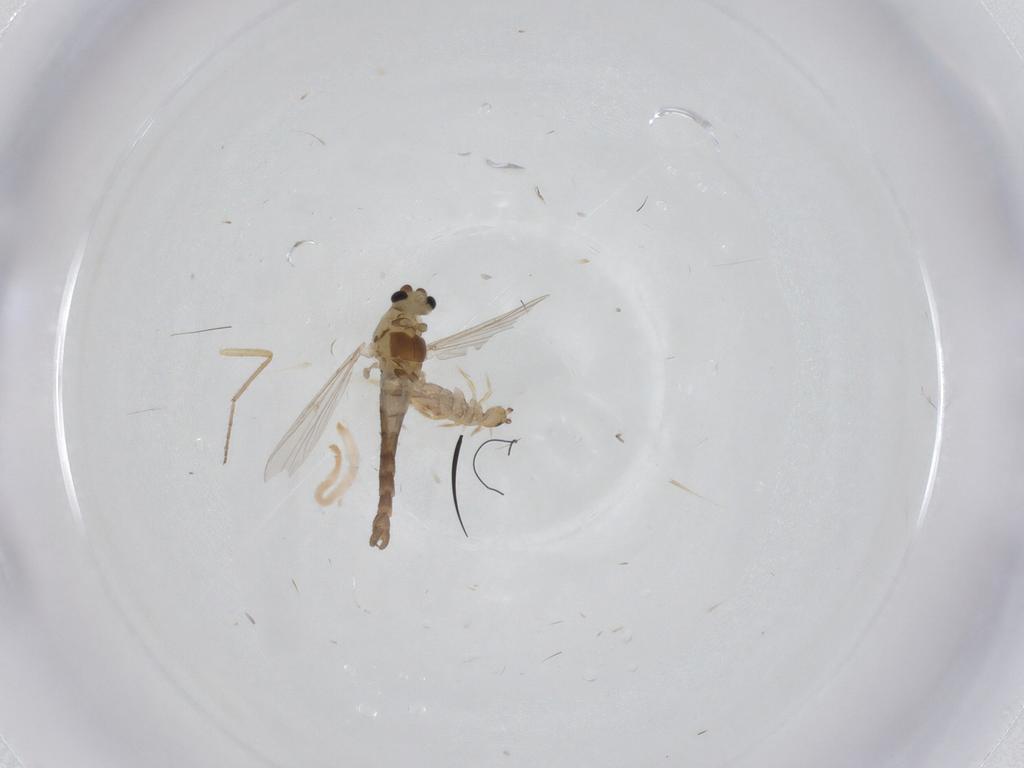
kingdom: Animalia
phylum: Arthropoda
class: Insecta
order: Diptera
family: Chironomidae
